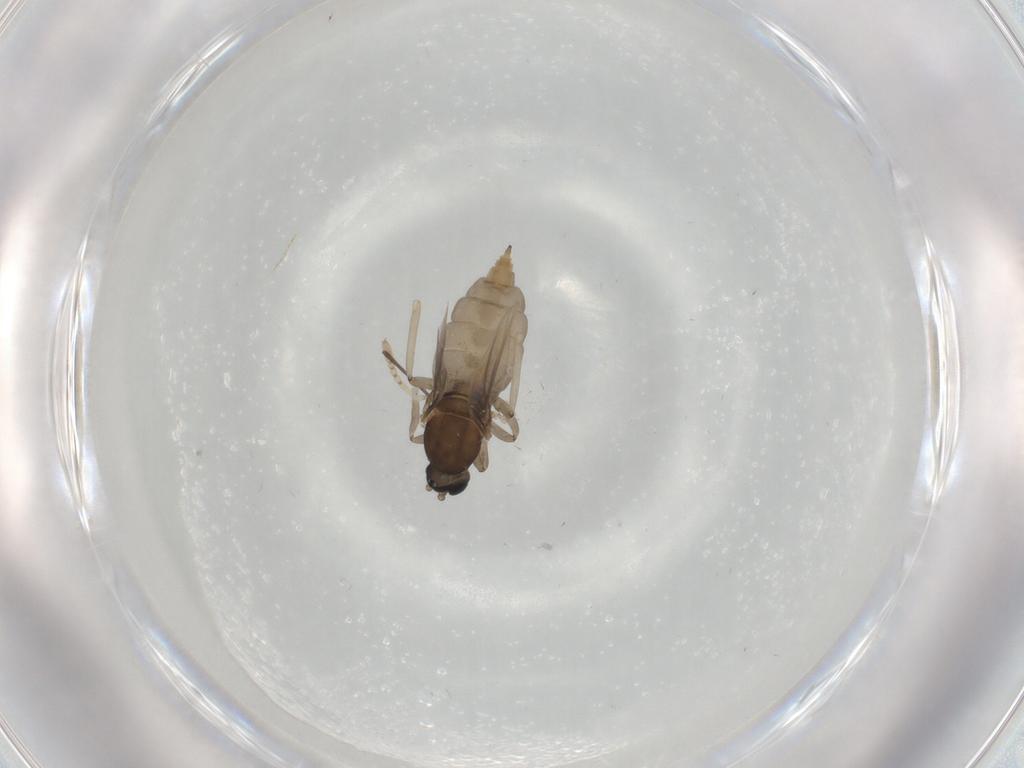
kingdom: Animalia
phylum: Arthropoda
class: Insecta
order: Diptera
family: Cecidomyiidae
